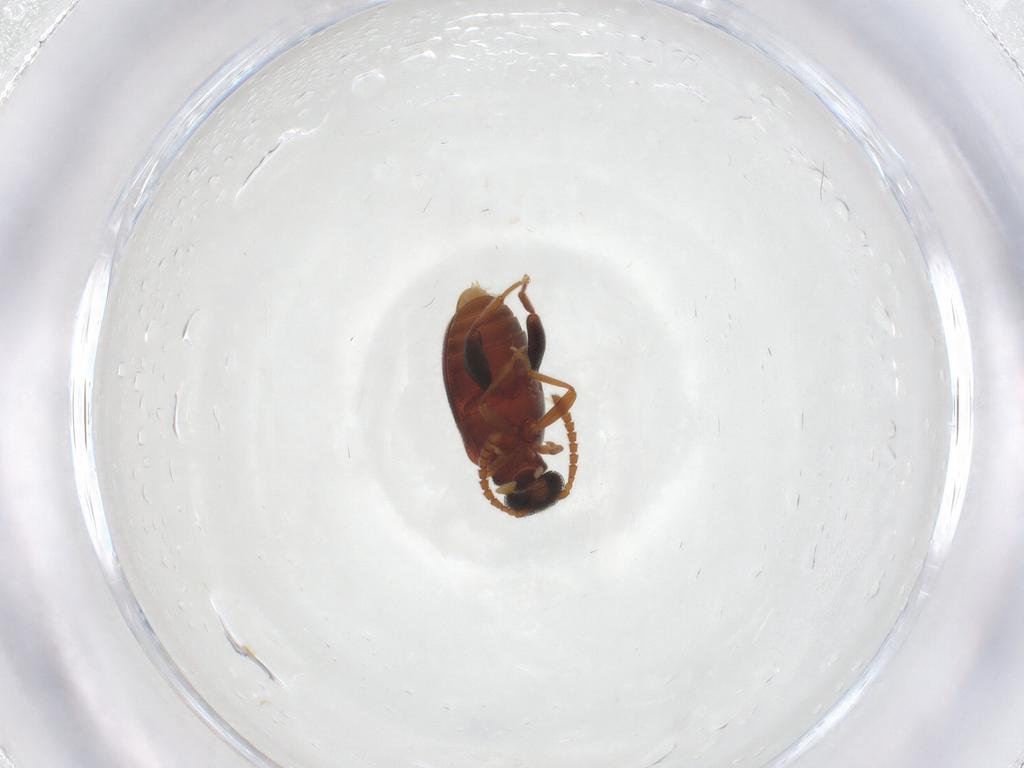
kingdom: Animalia
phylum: Arthropoda
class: Insecta
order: Coleoptera
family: Aderidae
